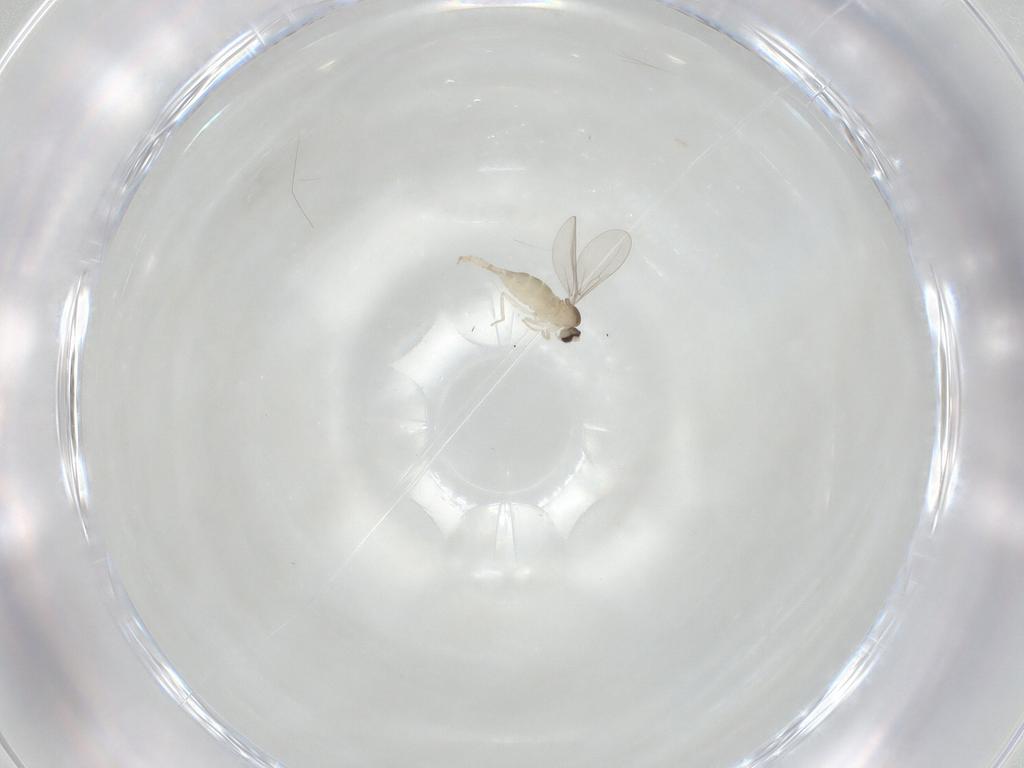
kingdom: Animalia
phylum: Arthropoda
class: Insecta
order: Diptera
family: Cecidomyiidae
